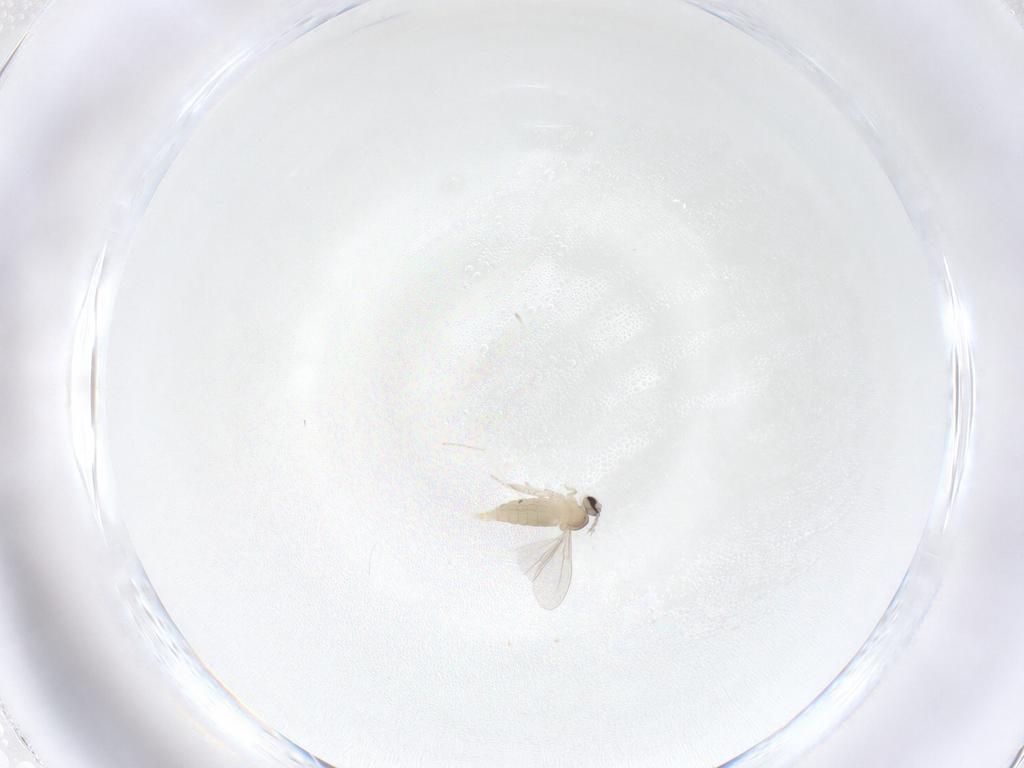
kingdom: Animalia
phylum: Arthropoda
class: Insecta
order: Diptera
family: Cecidomyiidae
